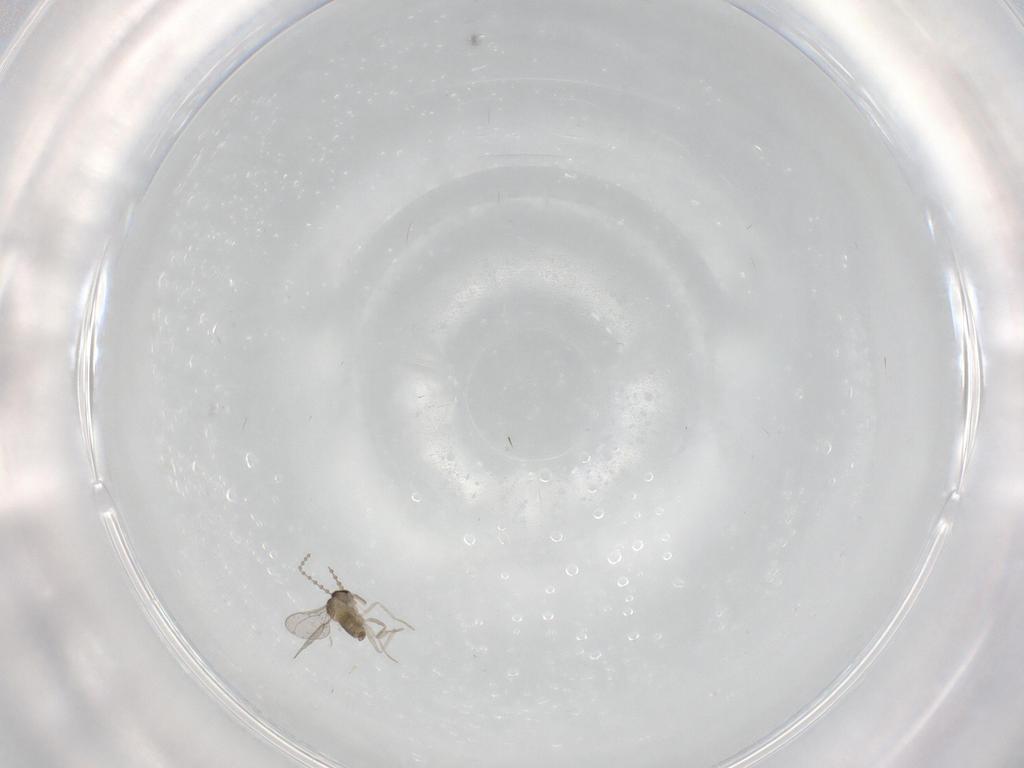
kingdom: Animalia
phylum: Arthropoda
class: Insecta
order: Diptera
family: Cecidomyiidae
